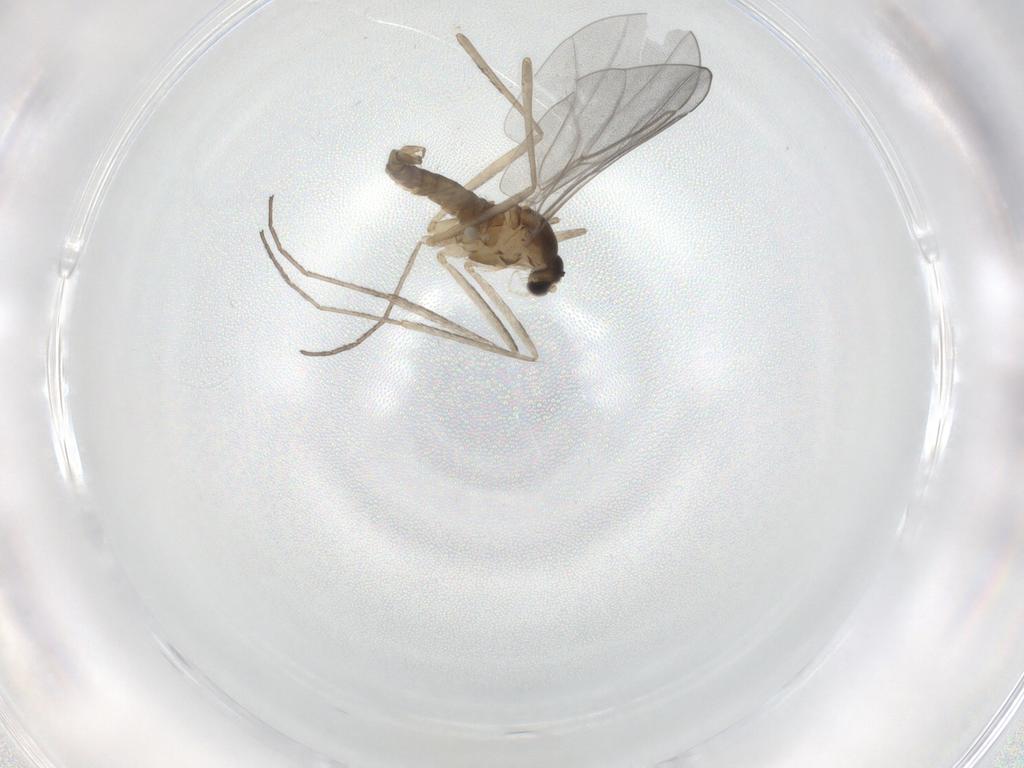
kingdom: Animalia
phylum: Arthropoda
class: Insecta
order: Diptera
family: Cecidomyiidae
